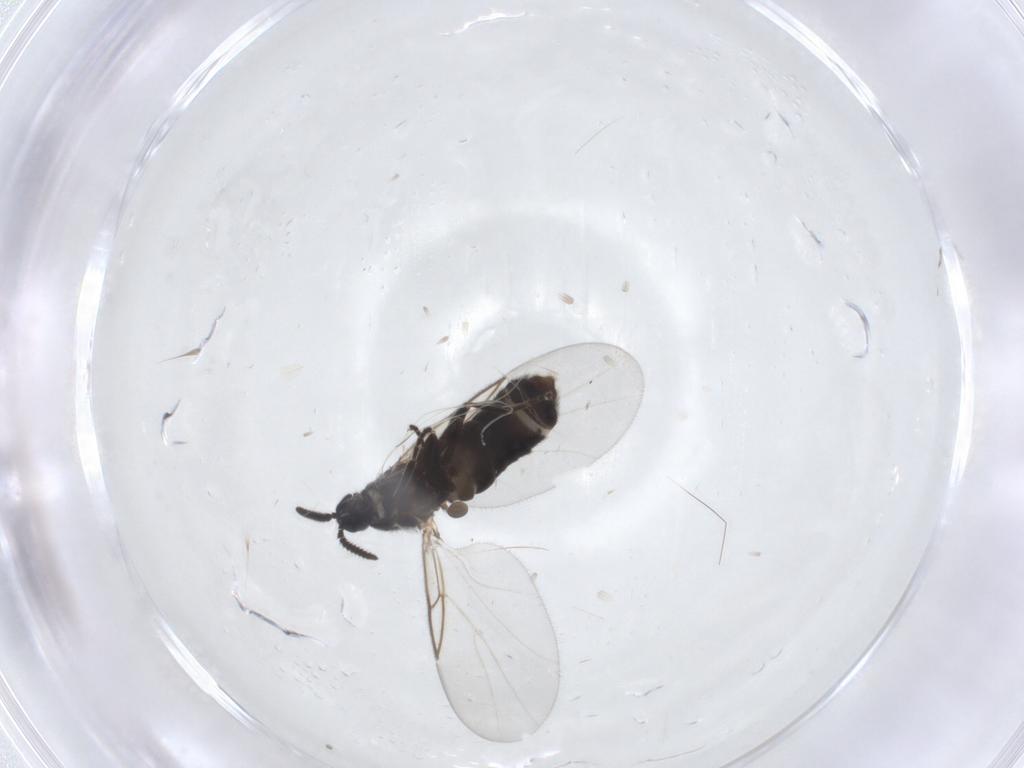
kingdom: Animalia
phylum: Arthropoda
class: Insecta
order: Diptera
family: Scatopsidae
